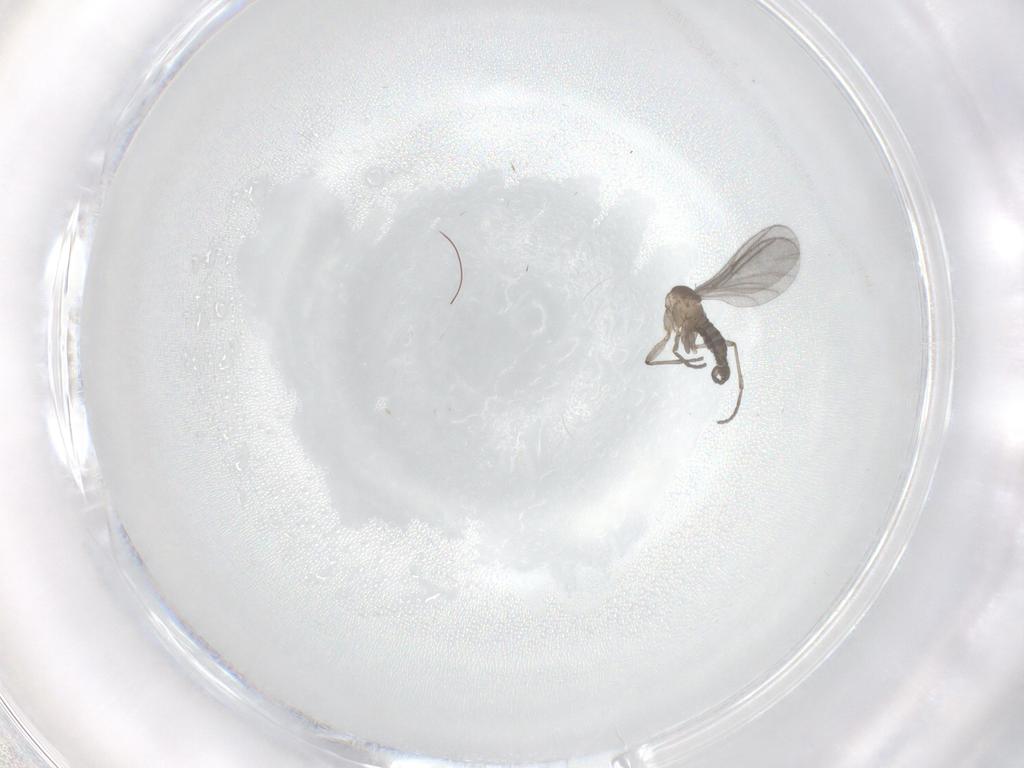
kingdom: Animalia
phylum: Arthropoda
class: Insecta
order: Diptera
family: Sciaridae
